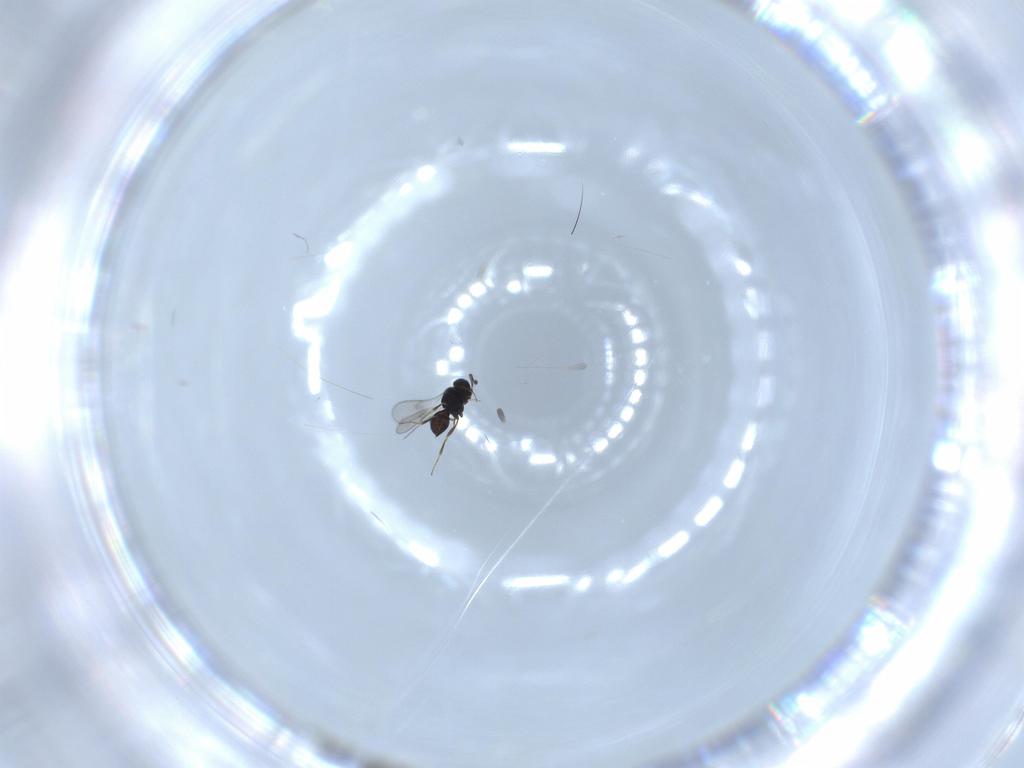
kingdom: Animalia
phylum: Arthropoda
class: Insecta
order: Hymenoptera
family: Scelionidae
